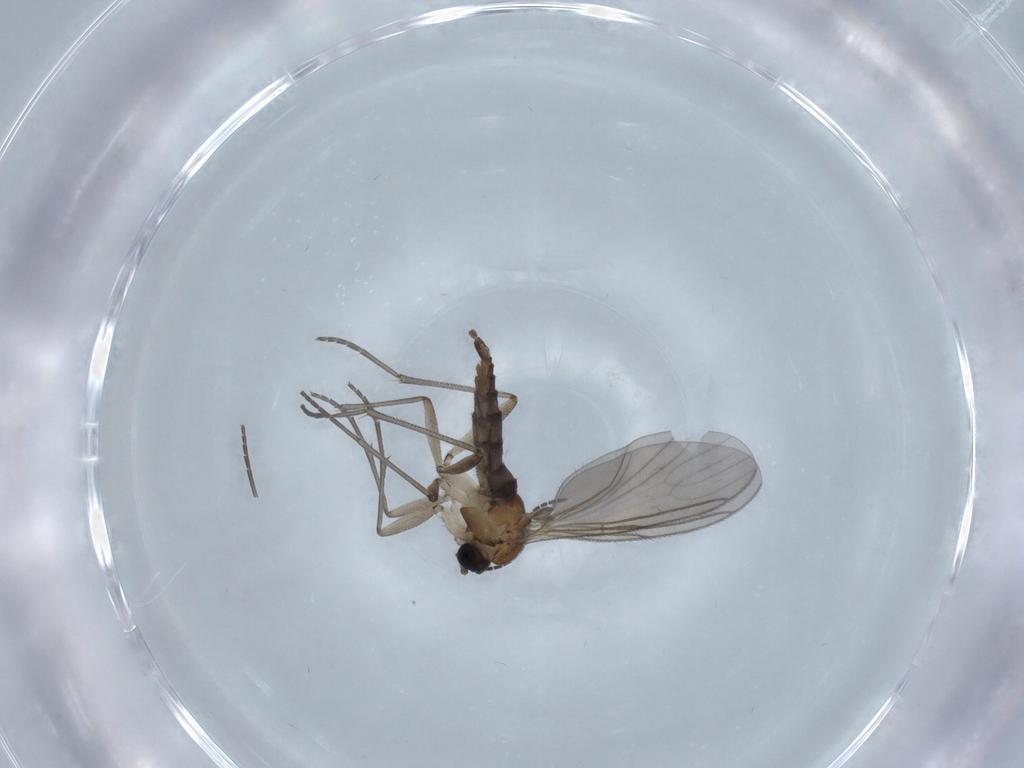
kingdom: Animalia
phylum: Arthropoda
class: Insecta
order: Diptera
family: Sciaridae
